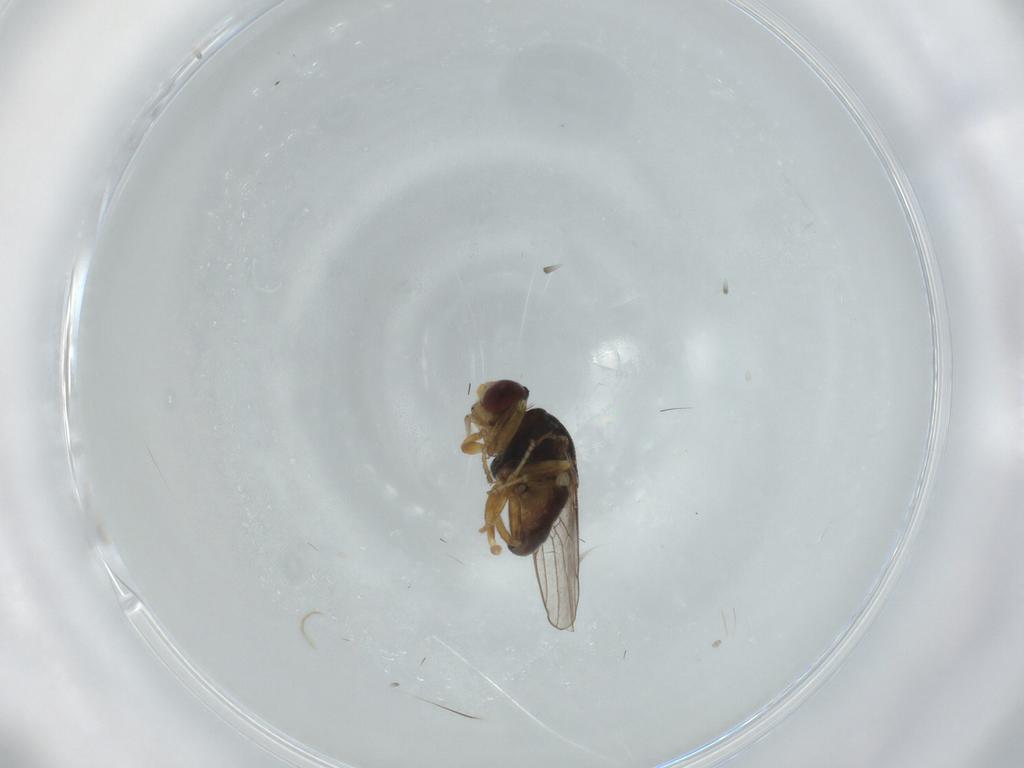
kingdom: Animalia
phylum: Arthropoda
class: Insecta
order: Diptera
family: Chloropidae
